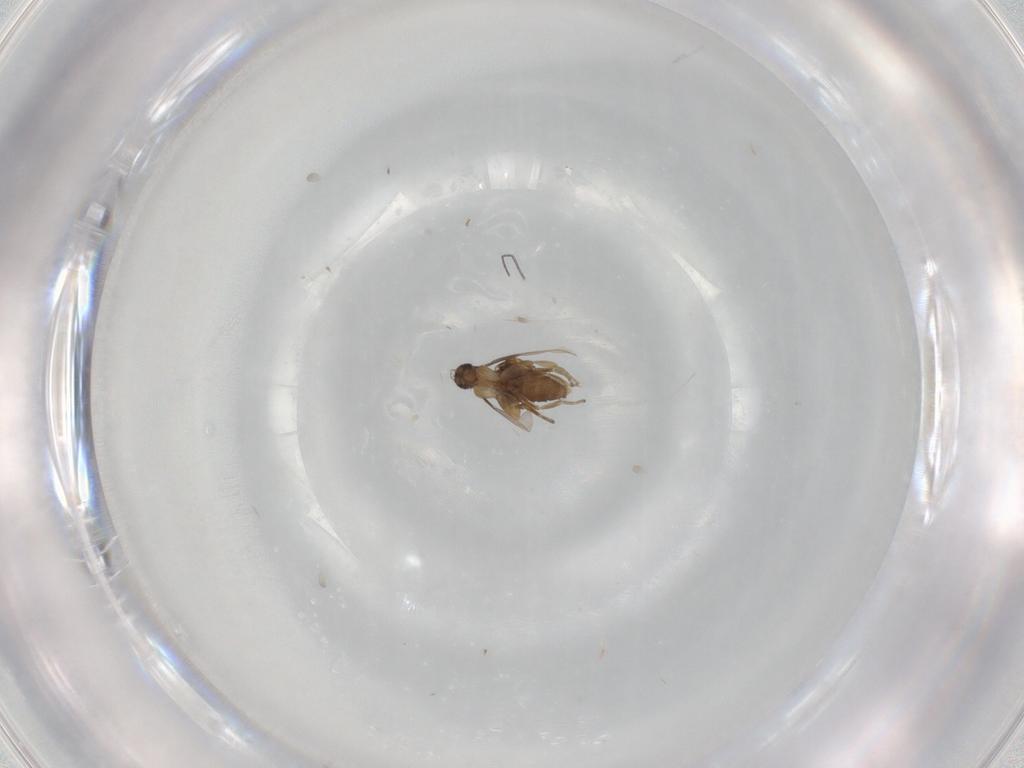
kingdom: Animalia
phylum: Arthropoda
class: Insecta
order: Diptera
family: Phoridae
